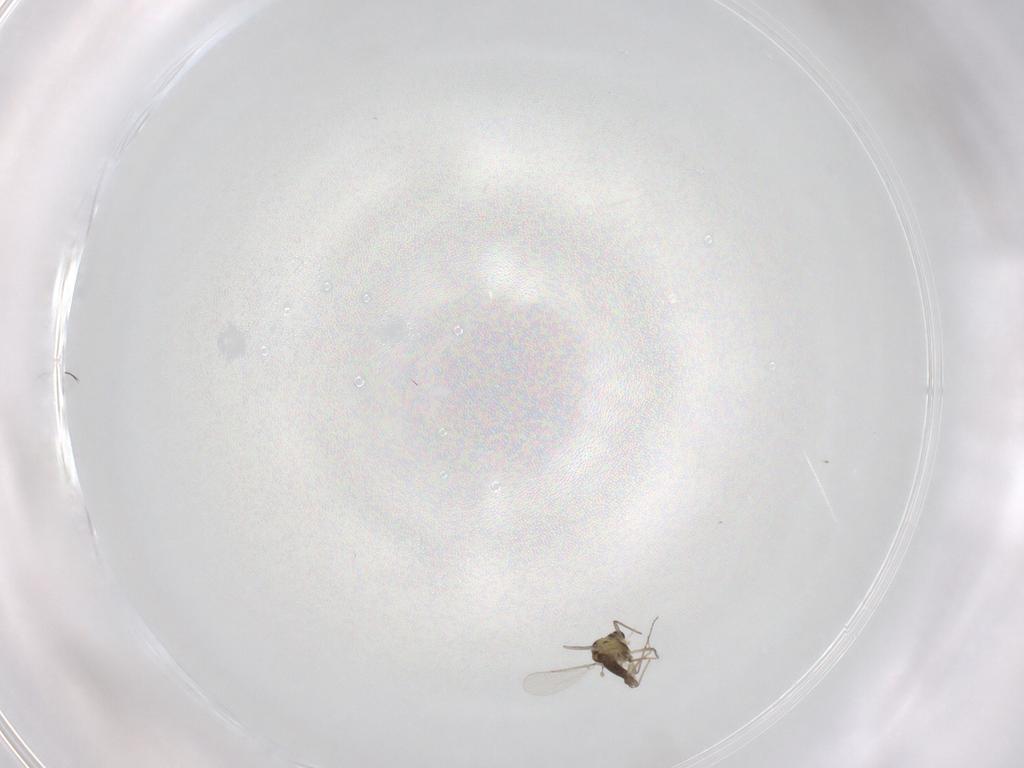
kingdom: Animalia
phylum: Arthropoda
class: Insecta
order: Diptera
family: Chironomidae
